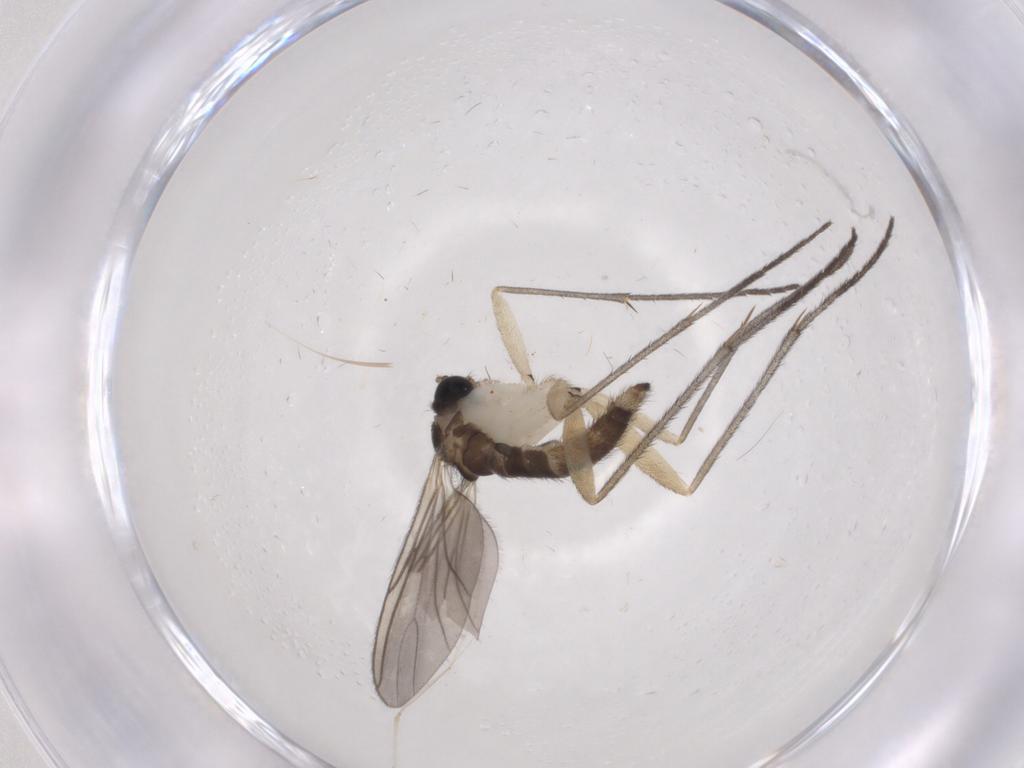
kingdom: Animalia
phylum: Arthropoda
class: Insecta
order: Diptera
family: Sciaridae
